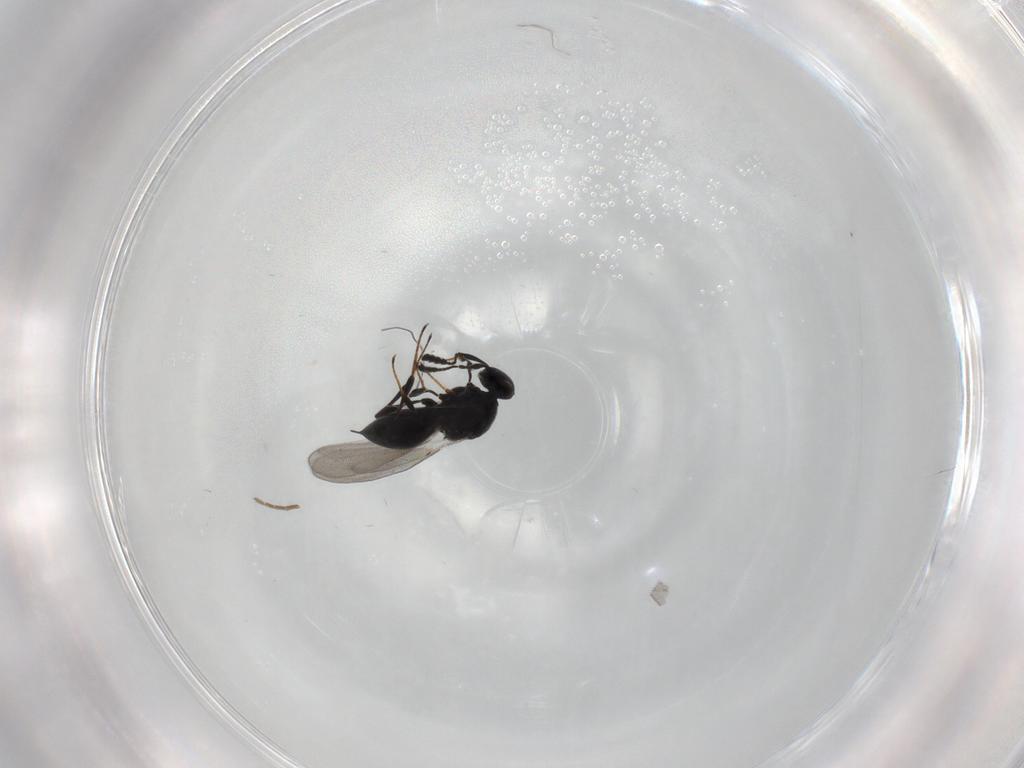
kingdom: Animalia
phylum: Arthropoda
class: Insecta
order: Hymenoptera
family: Platygastridae
